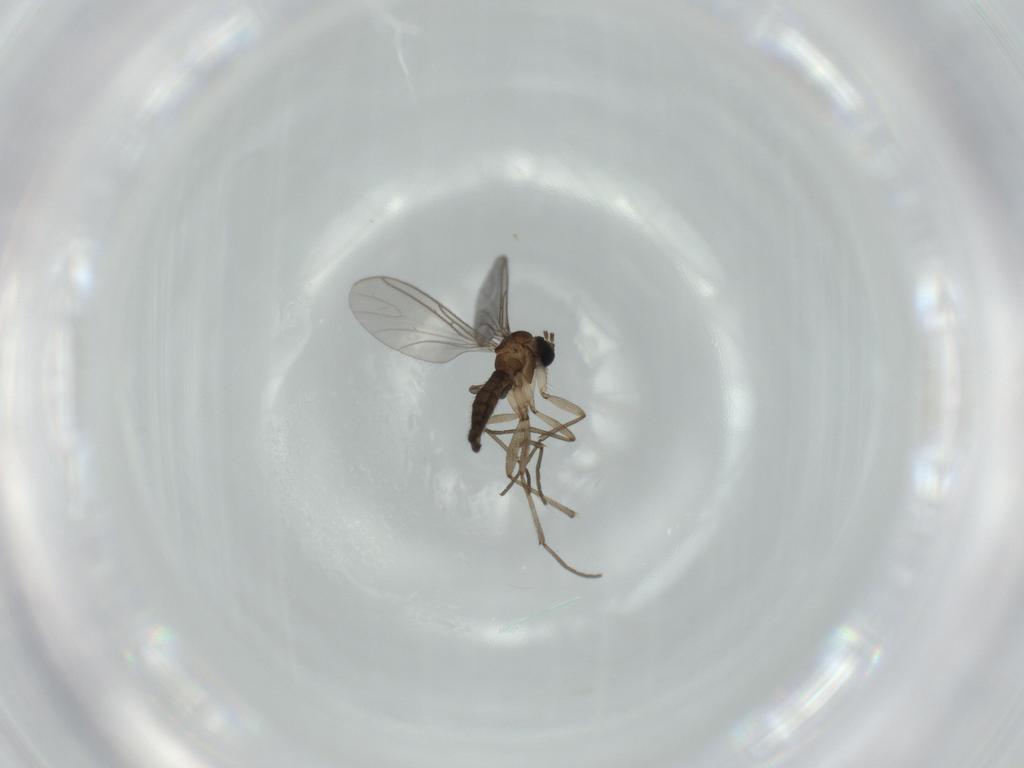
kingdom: Animalia
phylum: Arthropoda
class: Insecta
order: Diptera
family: Sciaridae
